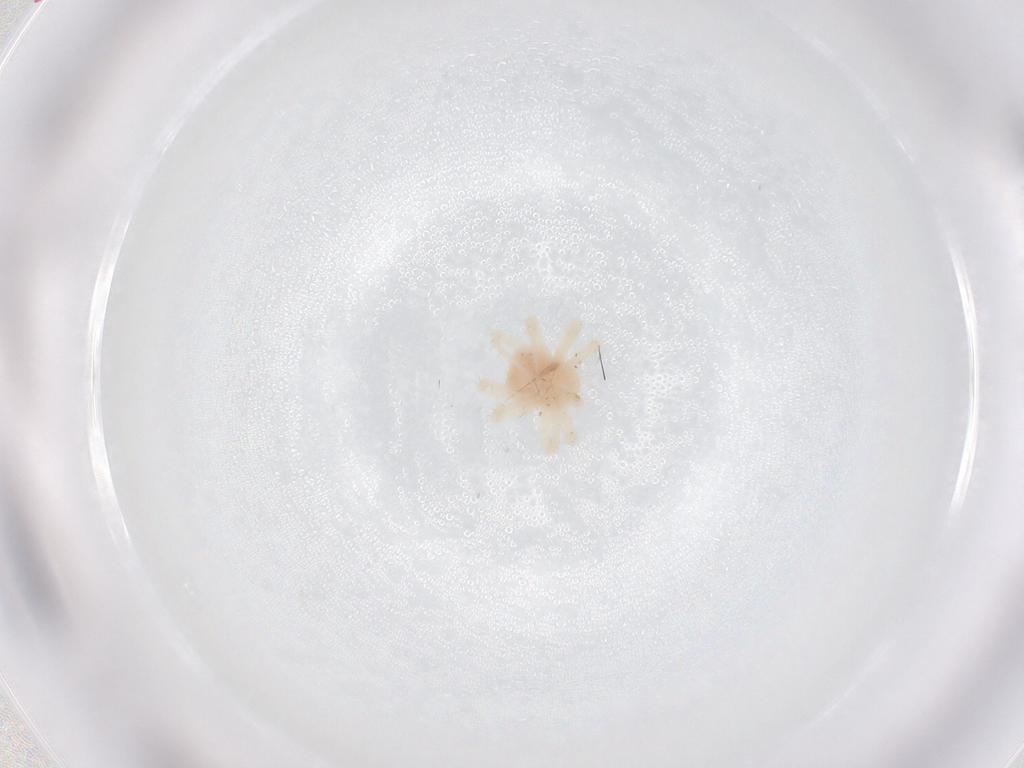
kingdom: Animalia
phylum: Arthropoda
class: Arachnida
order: Trombidiformes
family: Anystidae
